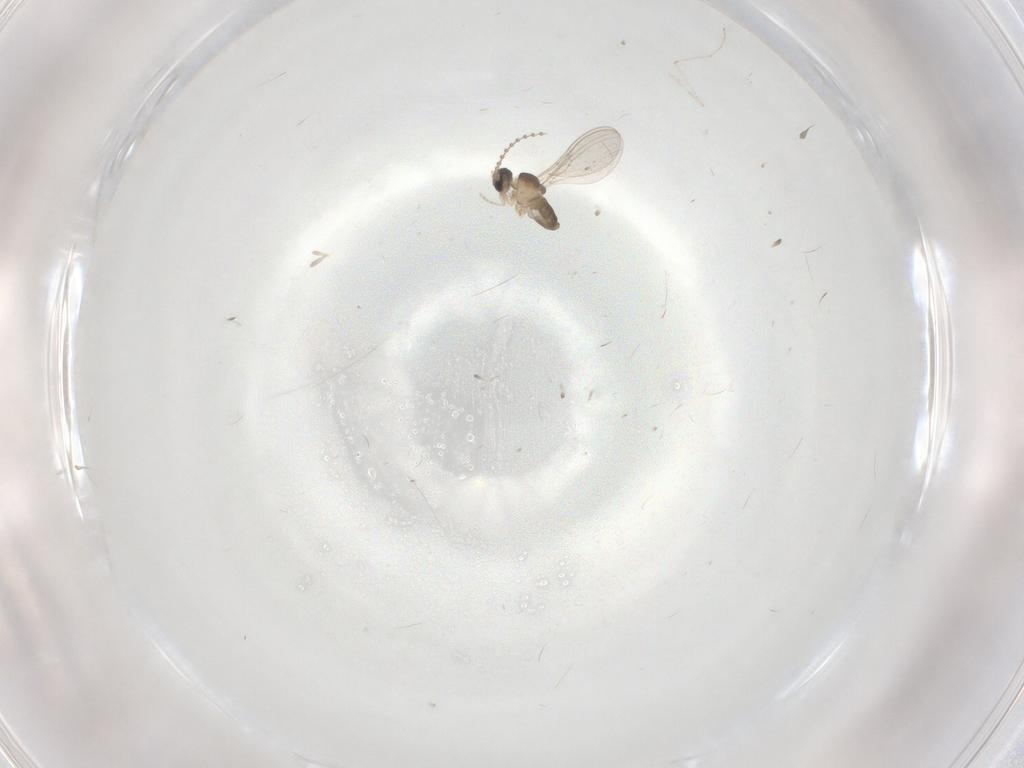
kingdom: Animalia
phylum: Arthropoda
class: Insecta
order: Diptera
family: Cecidomyiidae
